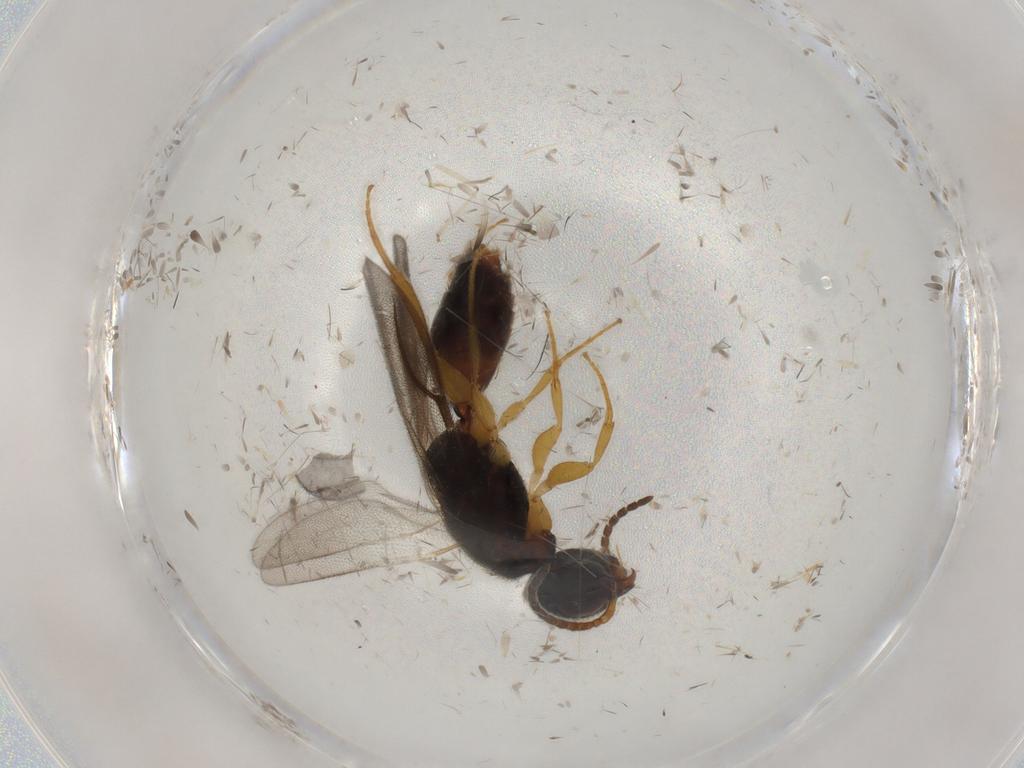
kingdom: Animalia
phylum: Arthropoda
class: Insecta
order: Hymenoptera
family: Bethylidae
